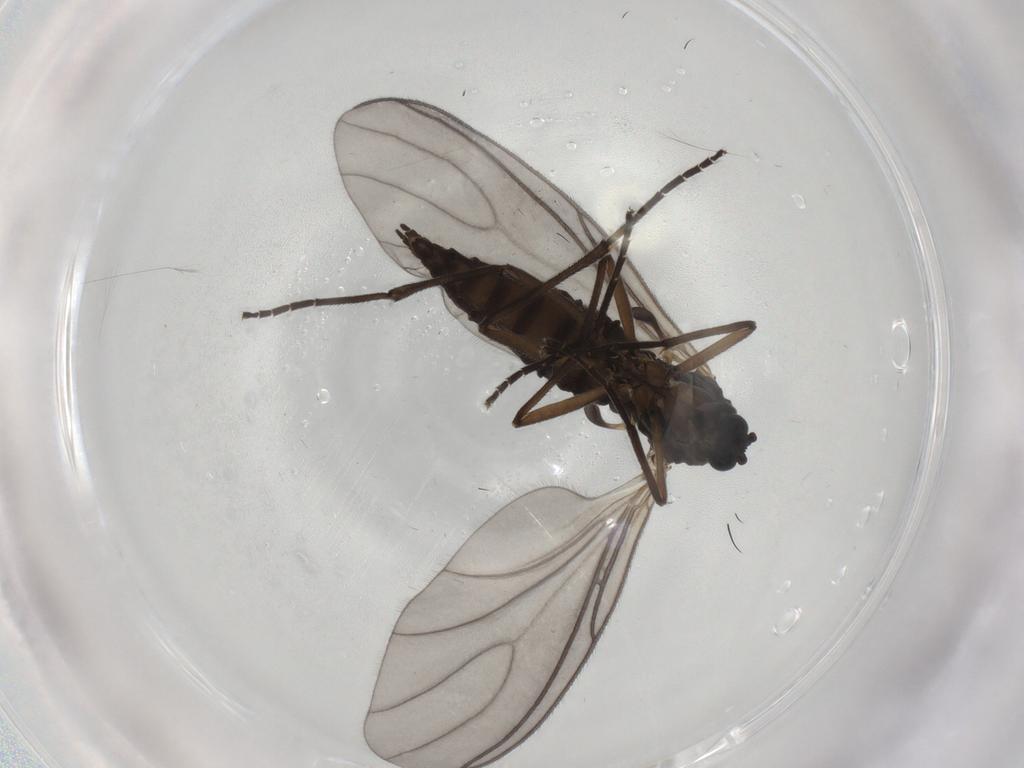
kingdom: Animalia
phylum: Arthropoda
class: Insecta
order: Diptera
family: Sciaridae
